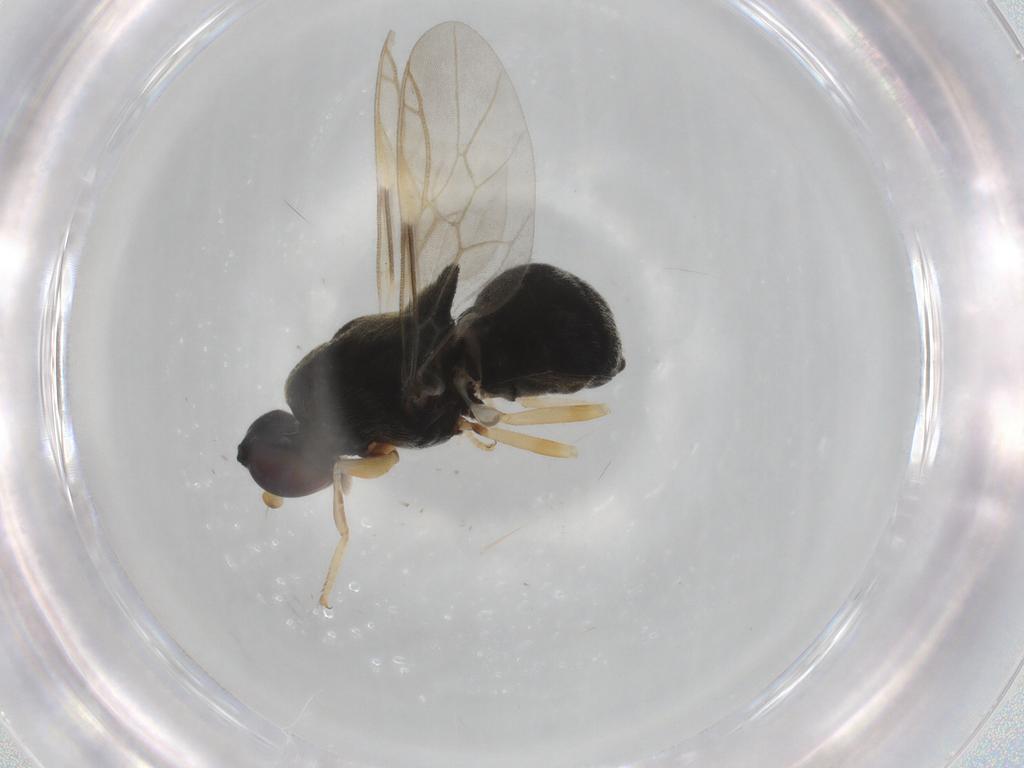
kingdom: Animalia
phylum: Arthropoda
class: Insecta
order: Diptera
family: Stratiomyidae
